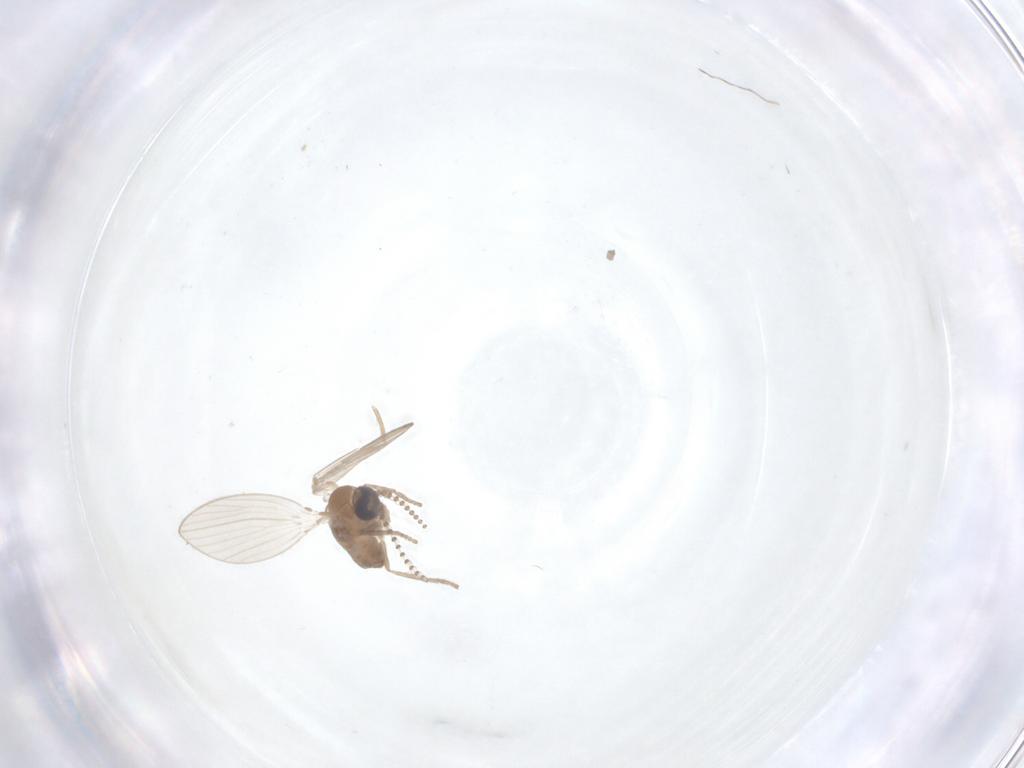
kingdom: Animalia
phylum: Arthropoda
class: Insecta
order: Diptera
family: Psychodidae
